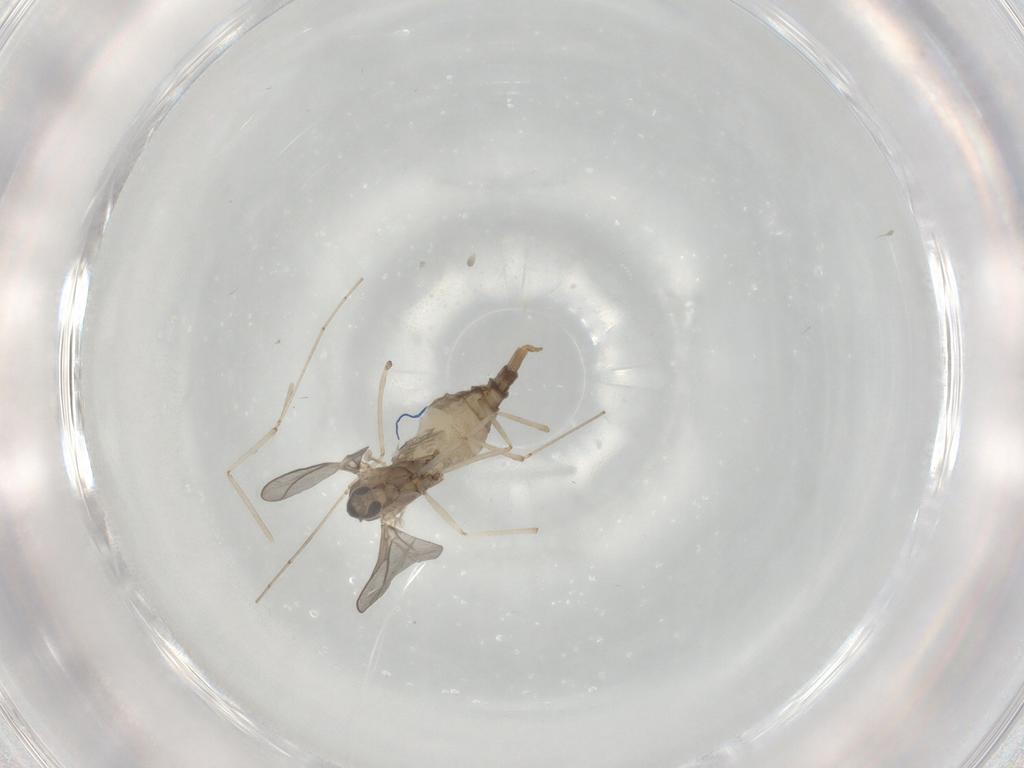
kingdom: Animalia
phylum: Arthropoda
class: Insecta
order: Diptera
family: Cecidomyiidae
